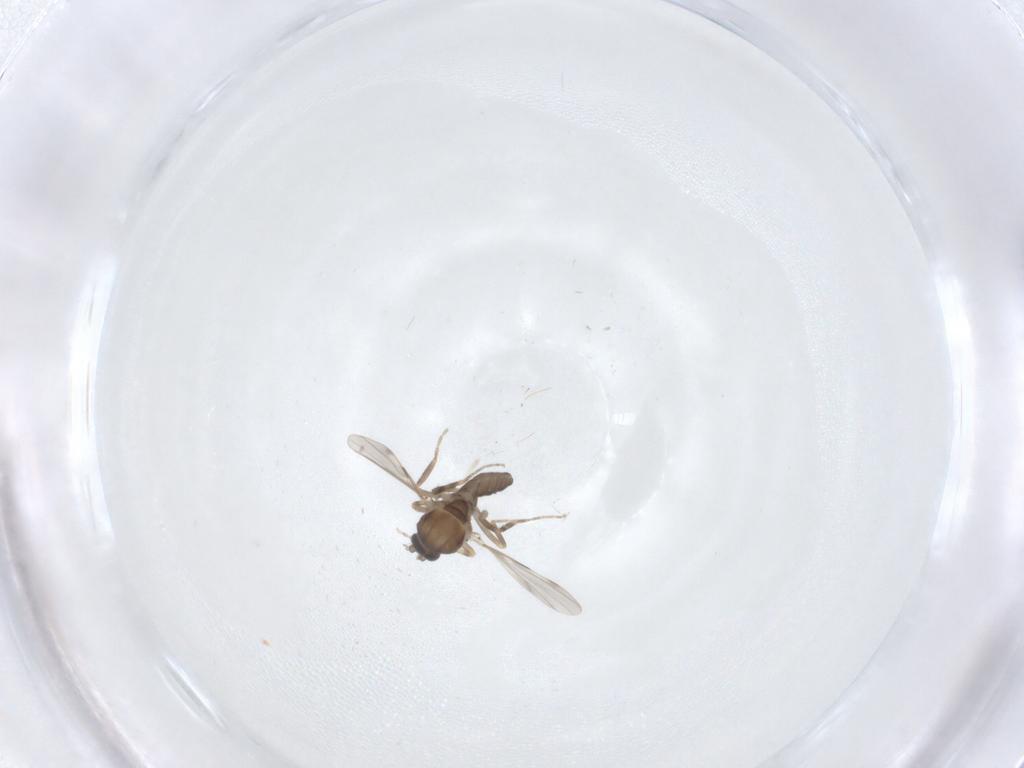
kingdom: Animalia
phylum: Arthropoda
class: Insecta
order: Diptera
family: Ceratopogonidae
